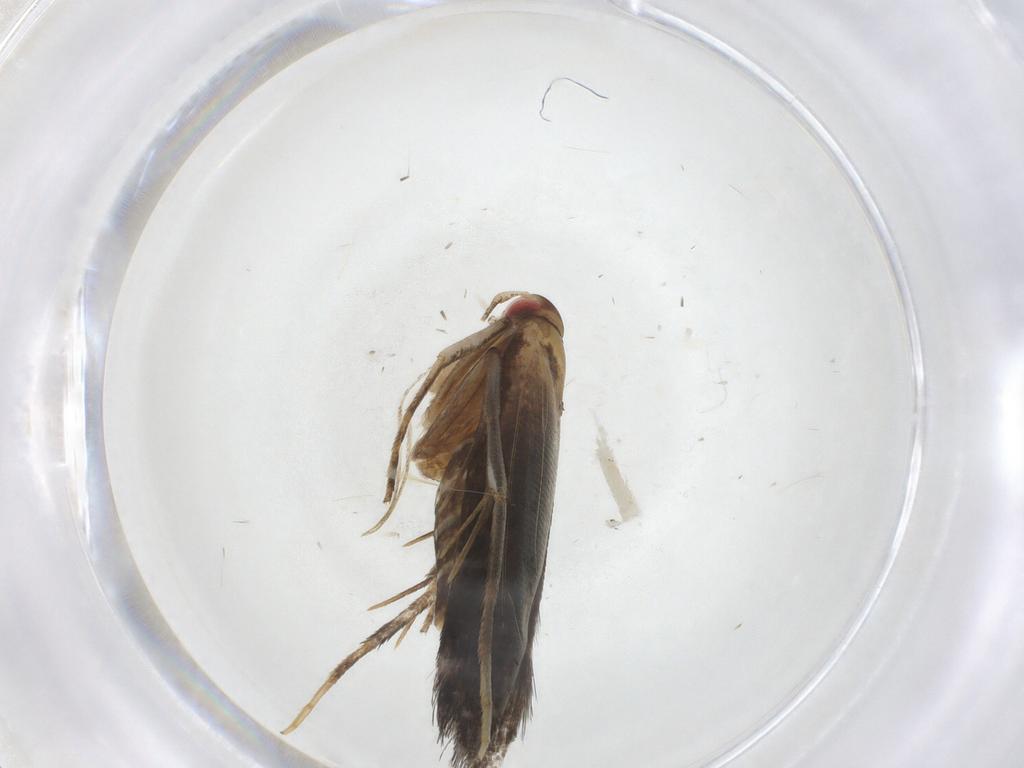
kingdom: Animalia
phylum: Arthropoda
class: Insecta
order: Lepidoptera
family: Cosmopterigidae
